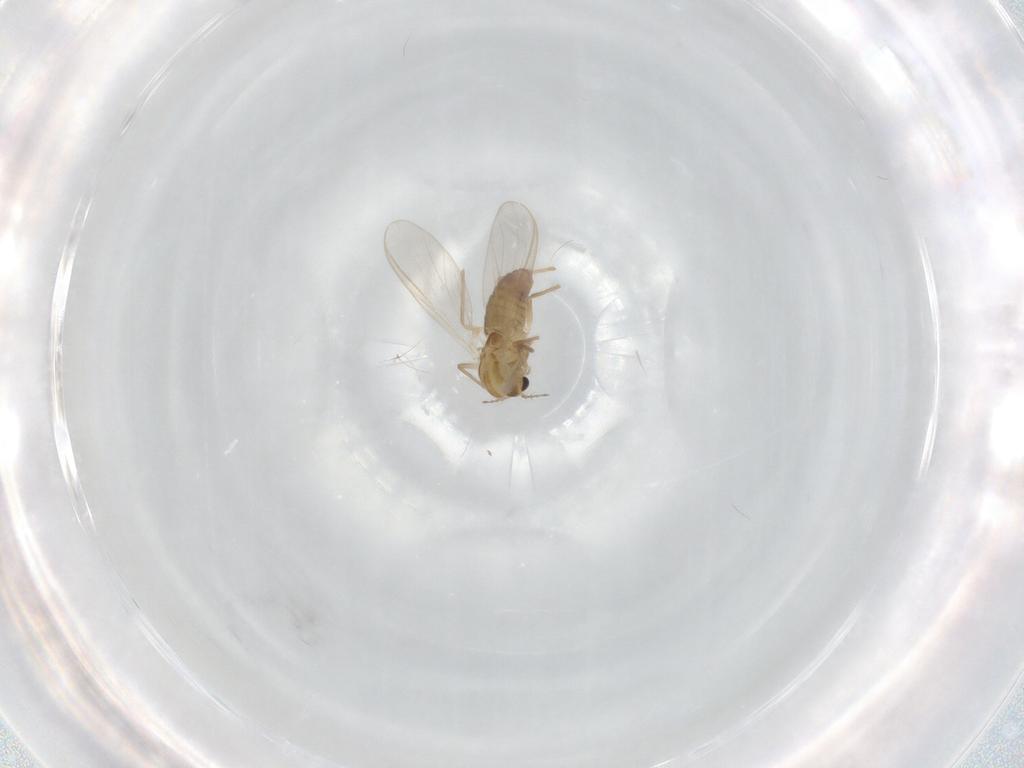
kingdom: Animalia
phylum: Arthropoda
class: Insecta
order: Diptera
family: Chironomidae
